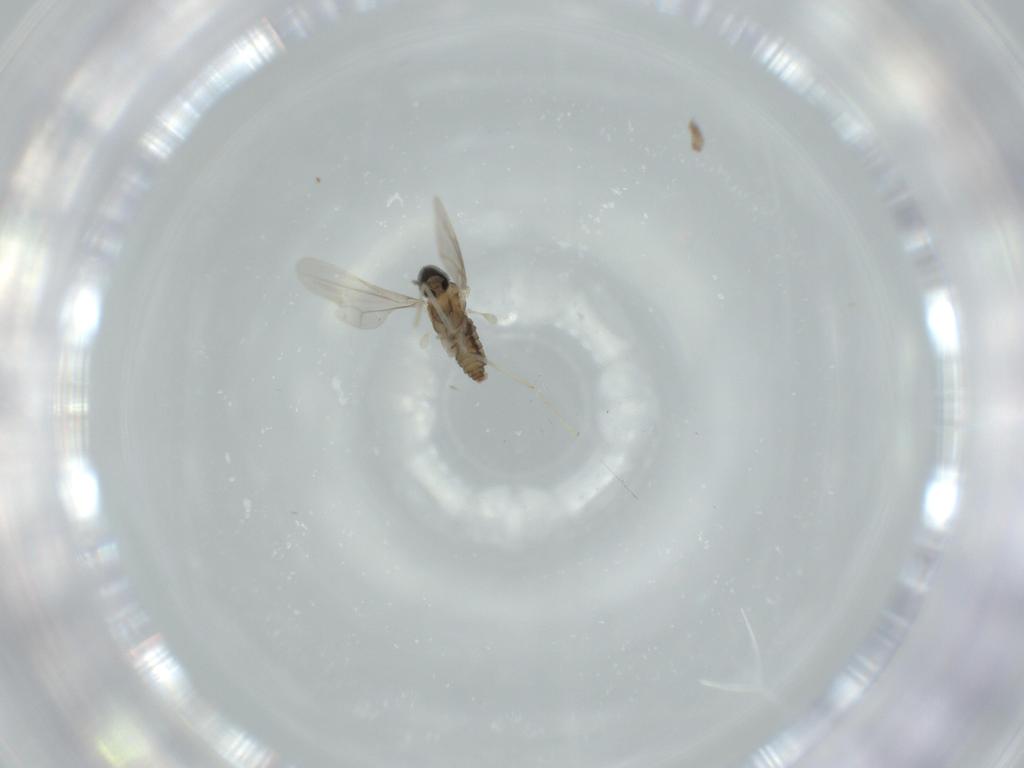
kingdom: Animalia
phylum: Arthropoda
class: Insecta
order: Diptera
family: Cecidomyiidae
